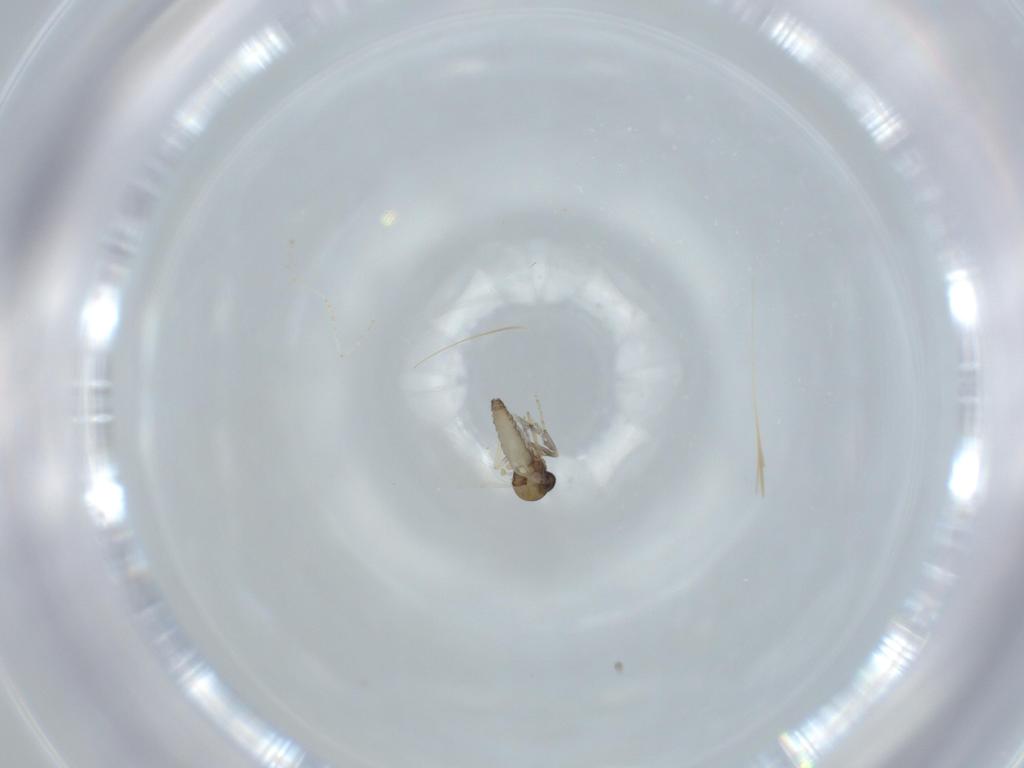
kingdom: Animalia
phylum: Arthropoda
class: Insecta
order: Diptera
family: Ceratopogonidae
